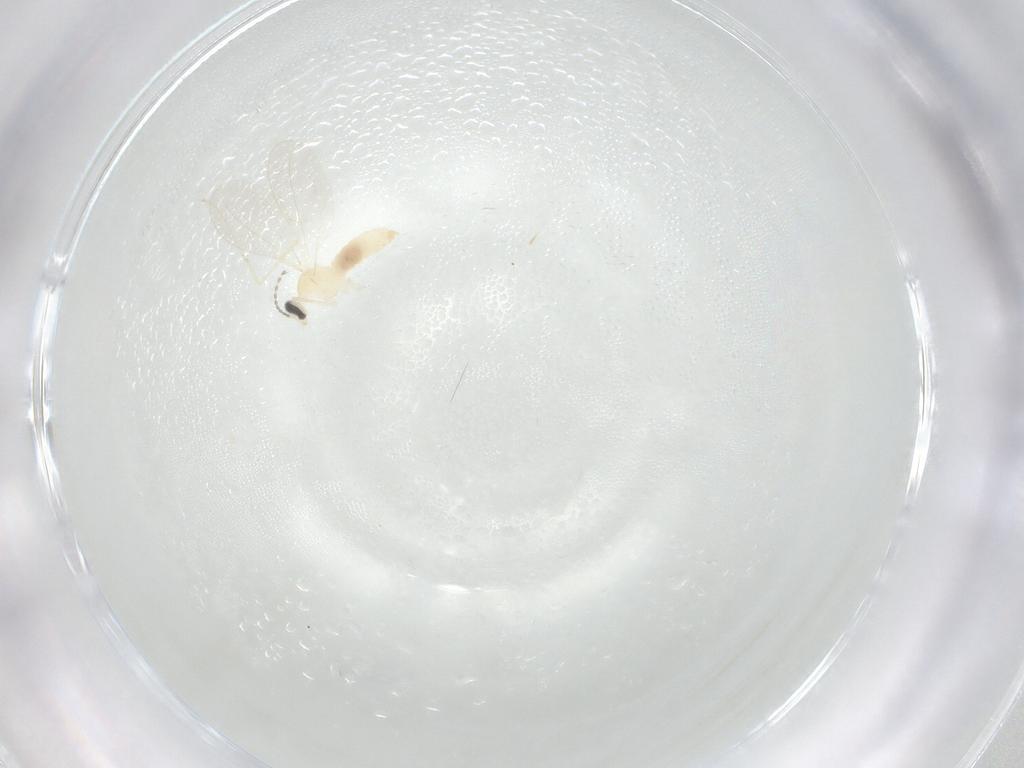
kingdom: Animalia
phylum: Arthropoda
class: Insecta
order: Diptera
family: Cecidomyiidae
